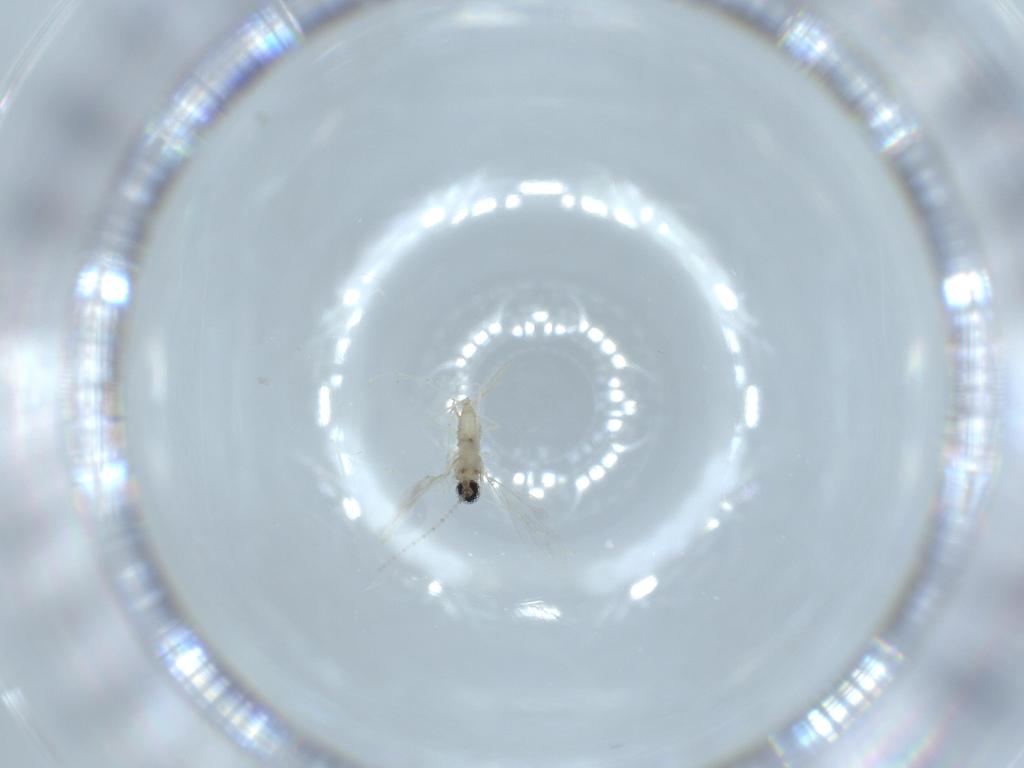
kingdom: Animalia
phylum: Arthropoda
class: Insecta
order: Diptera
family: Cecidomyiidae
